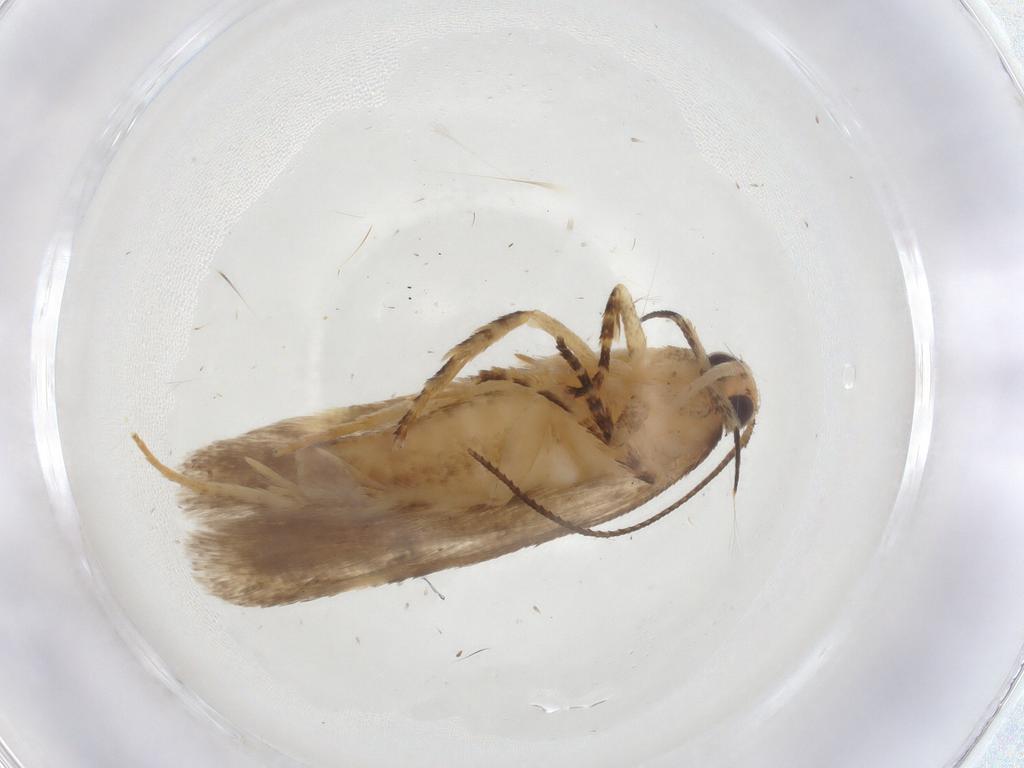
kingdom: Animalia
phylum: Arthropoda
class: Insecta
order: Lepidoptera
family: Gelechiidae
